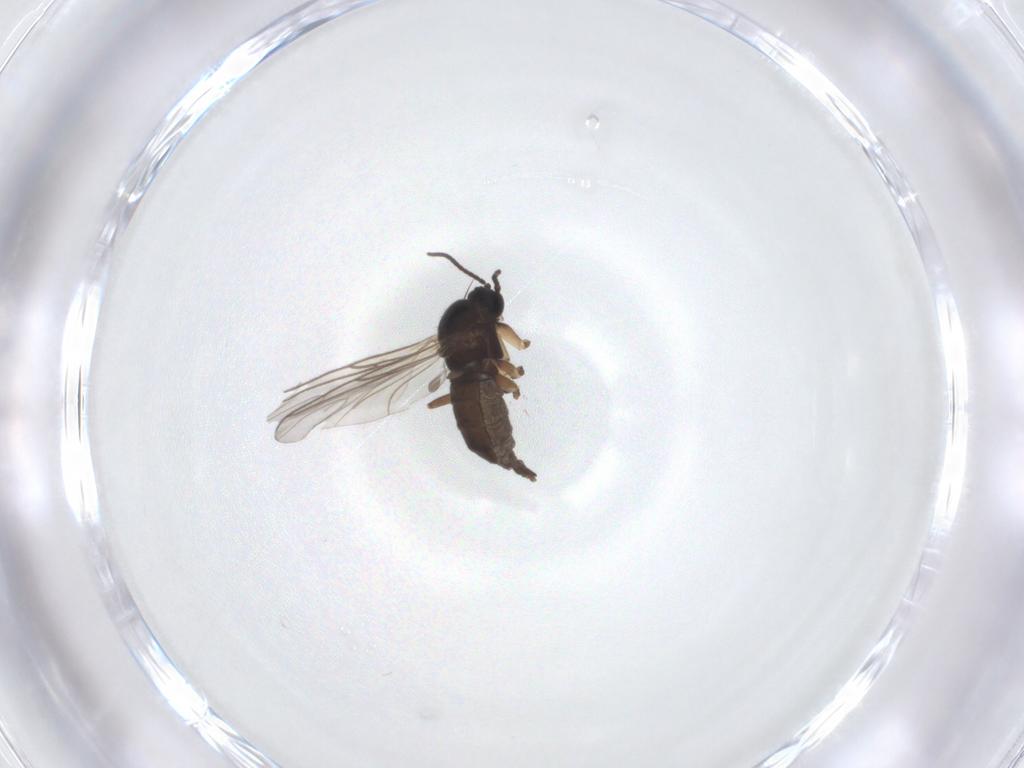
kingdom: Animalia
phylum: Arthropoda
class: Insecta
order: Diptera
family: Sciaridae
